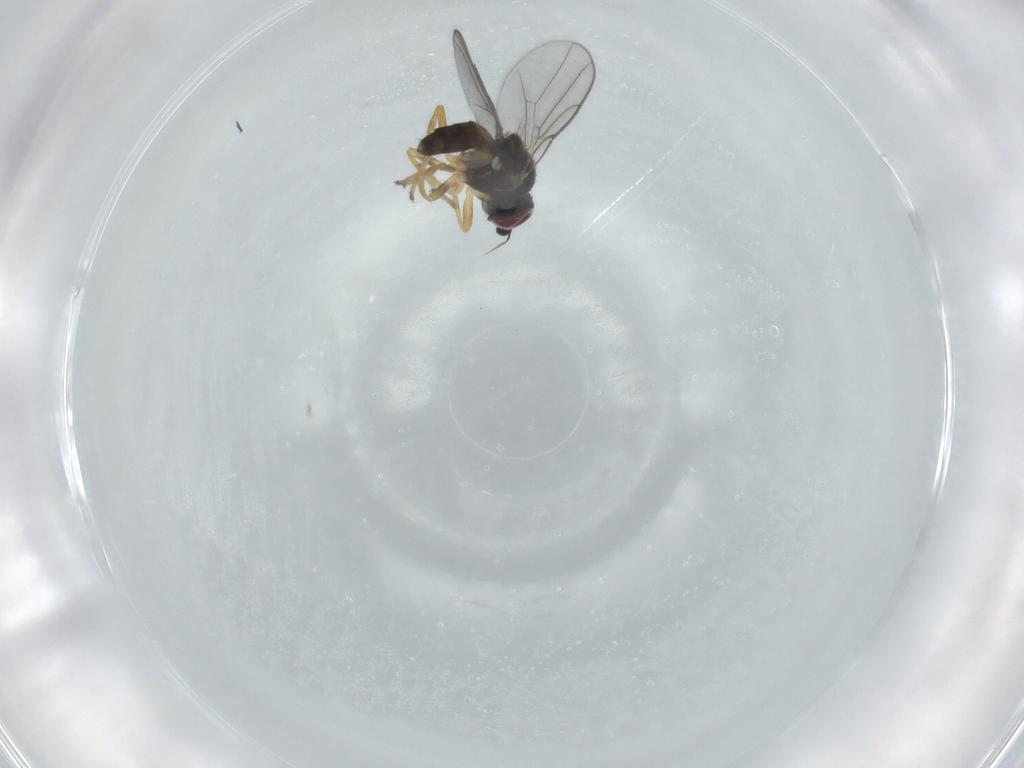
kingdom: Animalia
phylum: Arthropoda
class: Insecta
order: Diptera
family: Chloropidae
